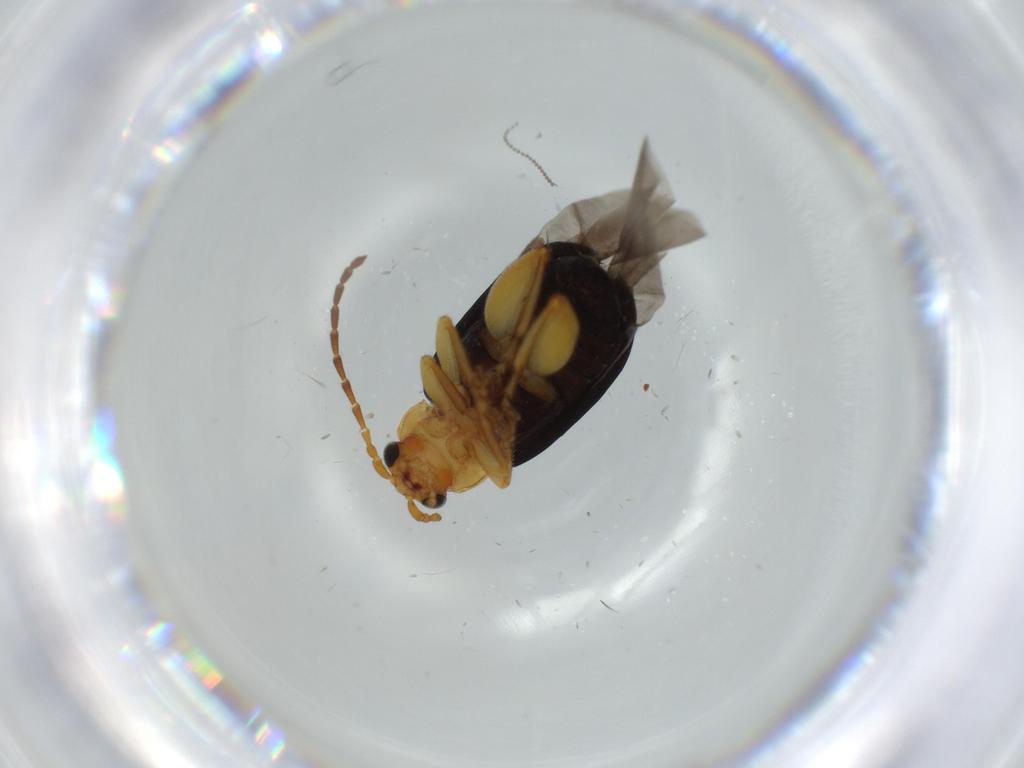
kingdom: Animalia
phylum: Arthropoda
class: Insecta
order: Coleoptera
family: Chrysomelidae
